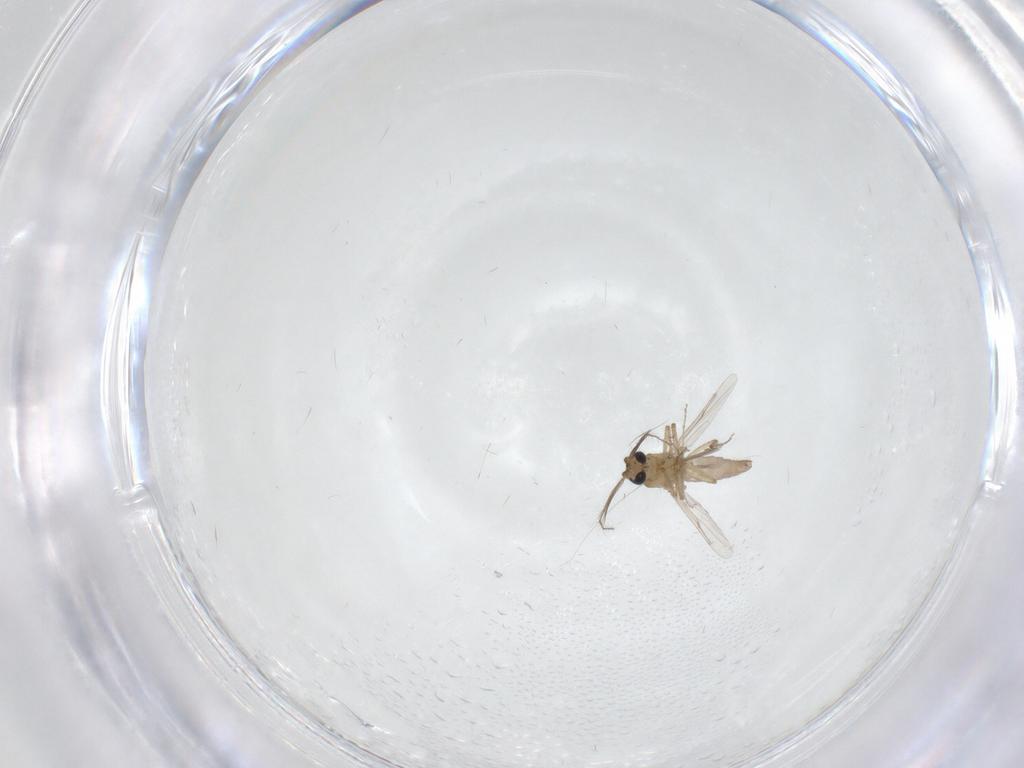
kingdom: Animalia
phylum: Arthropoda
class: Insecta
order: Diptera
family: Ceratopogonidae
